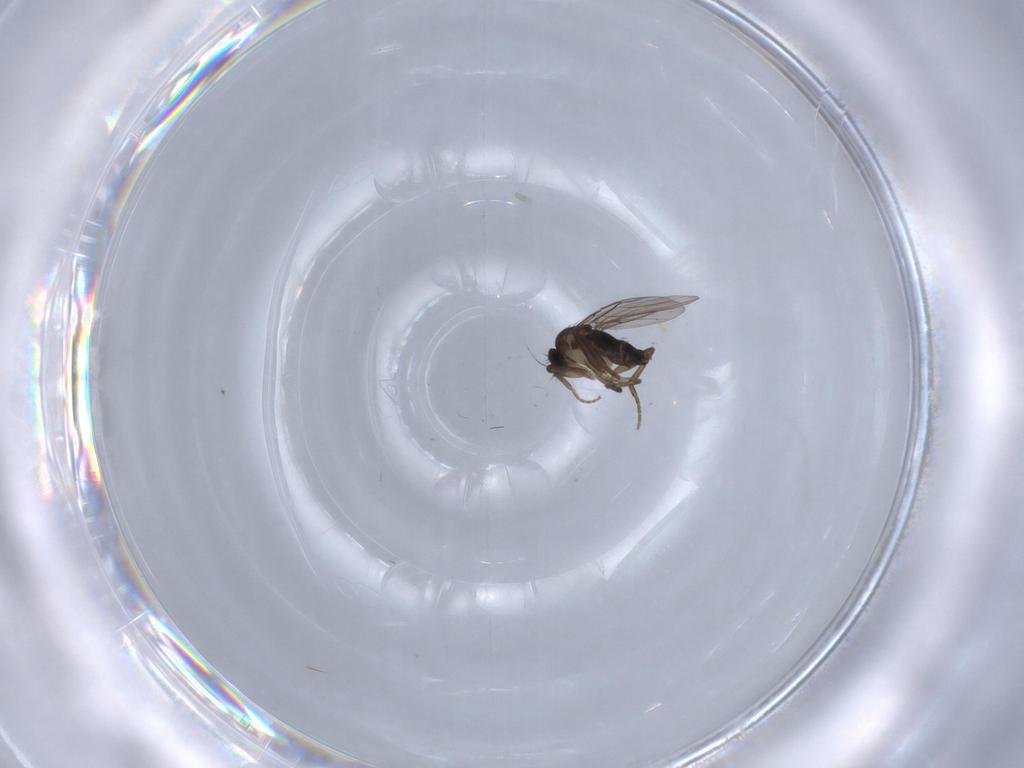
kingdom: Animalia
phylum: Arthropoda
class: Insecta
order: Diptera
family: Phoridae
